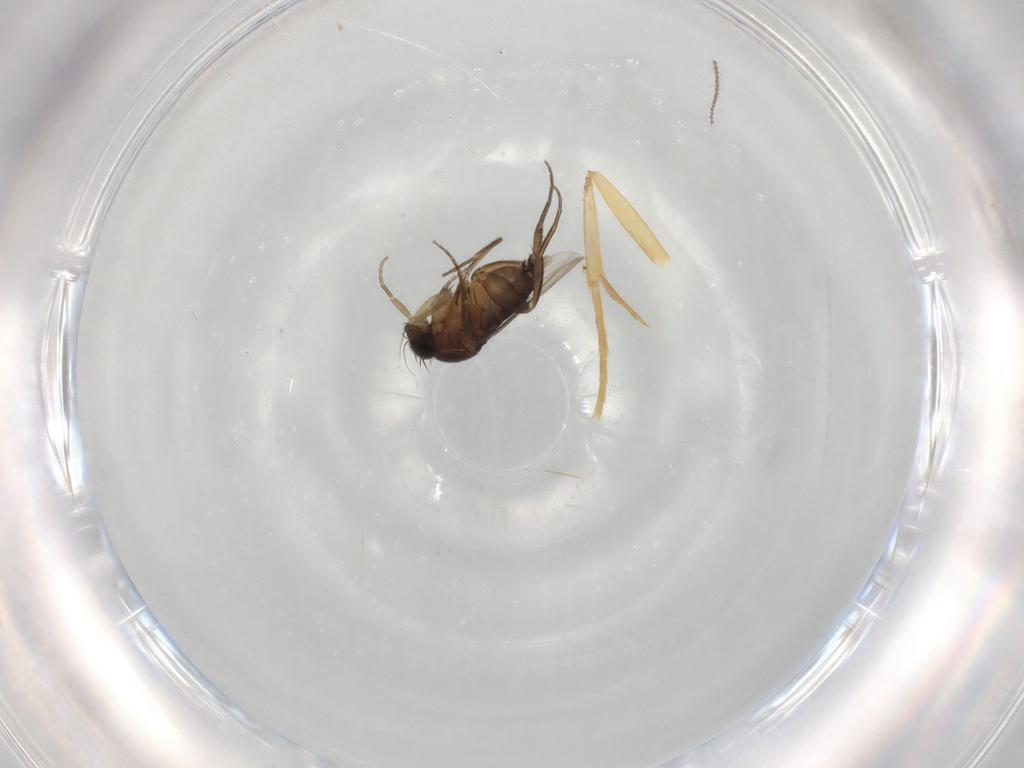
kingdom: Animalia
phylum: Arthropoda
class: Insecta
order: Diptera
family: Phoridae
